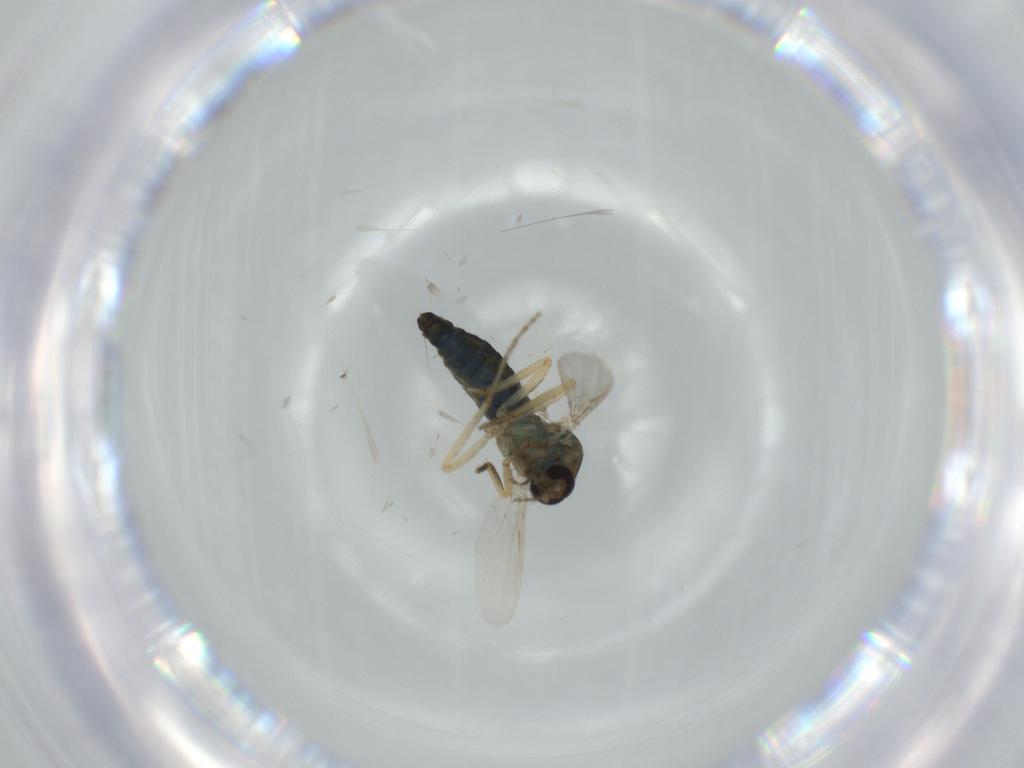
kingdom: Animalia
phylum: Arthropoda
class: Insecta
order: Diptera
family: Ceratopogonidae
